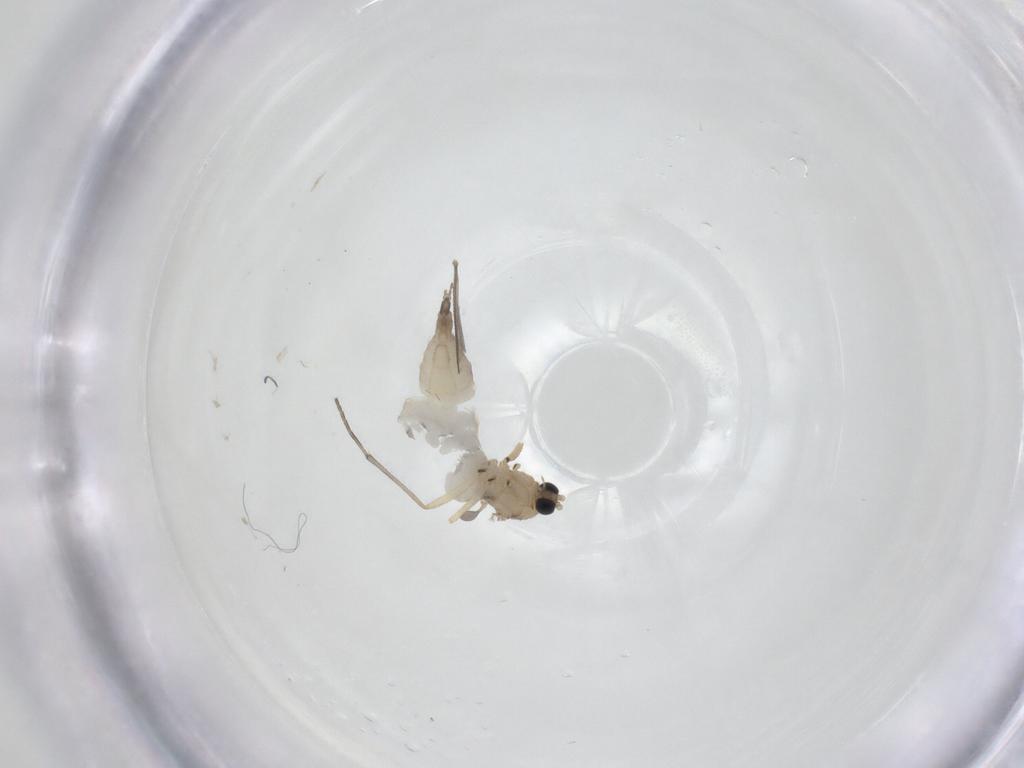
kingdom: Animalia
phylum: Arthropoda
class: Insecta
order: Diptera
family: Sciaridae
